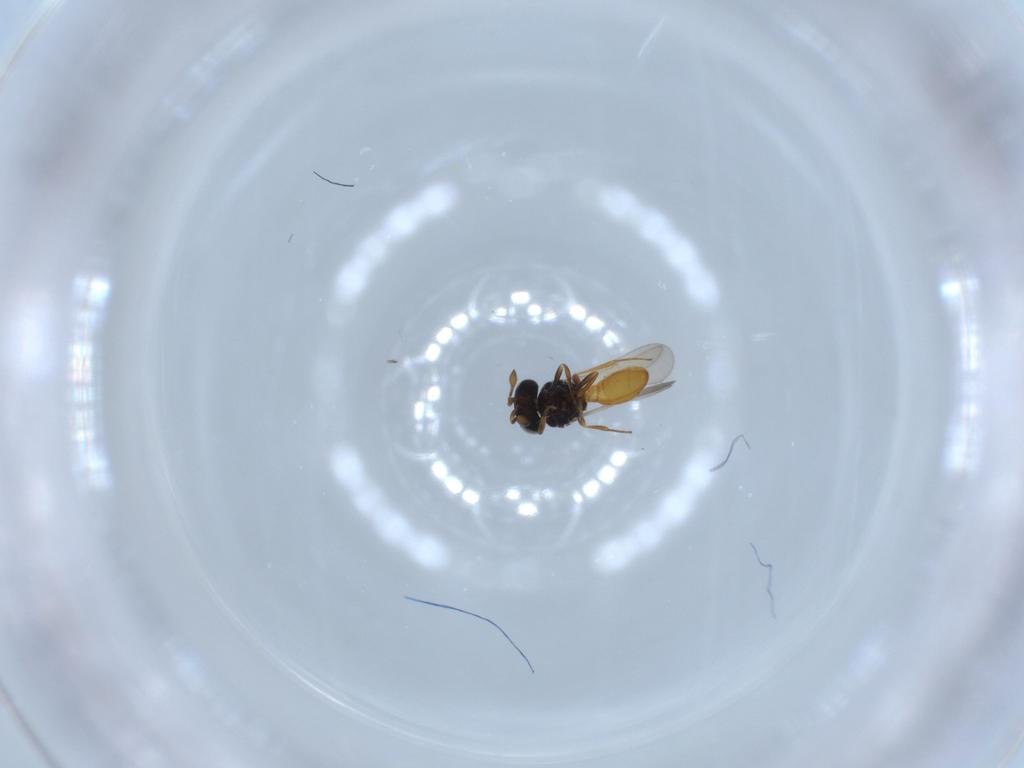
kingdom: Animalia
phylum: Arthropoda
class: Insecta
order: Hymenoptera
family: Scelionidae
